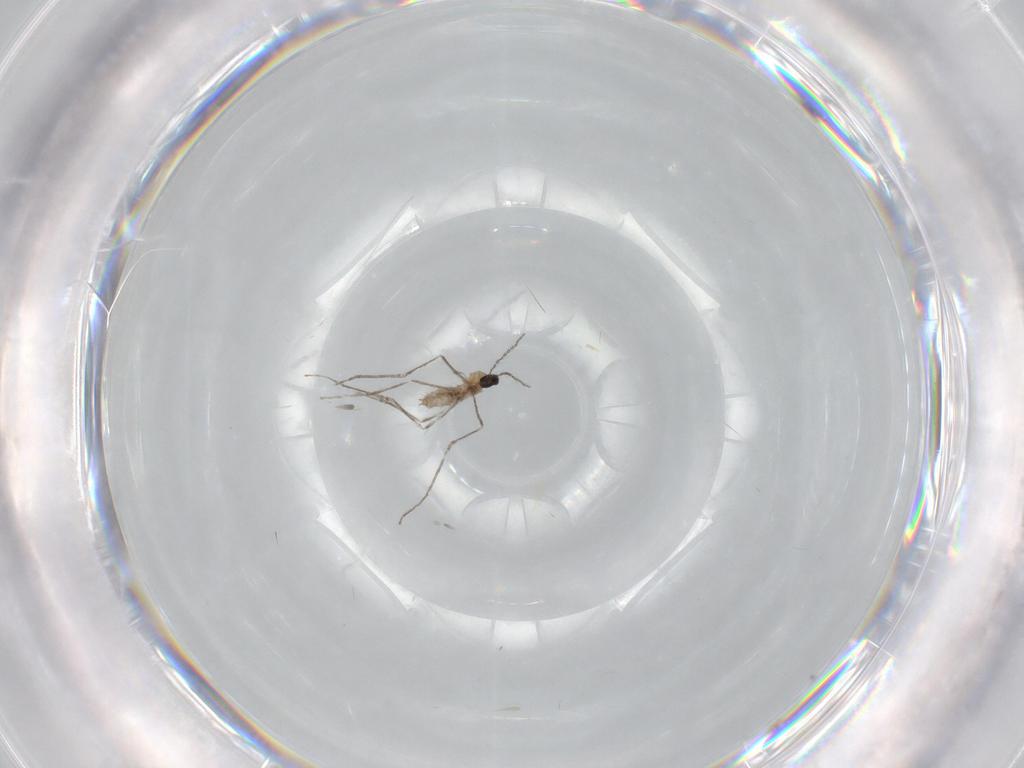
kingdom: Animalia
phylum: Arthropoda
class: Insecta
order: Diptera
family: Cecidomyiidae
